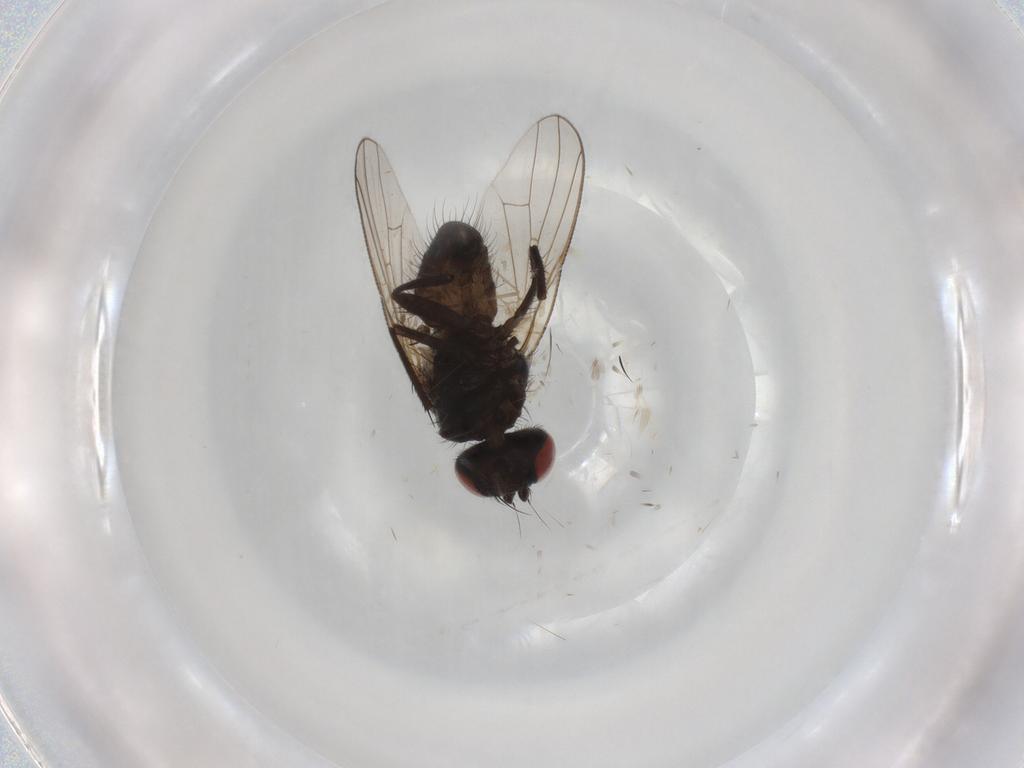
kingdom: Animalia
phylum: Arthropoda
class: Insecta
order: Diptera
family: Muscidae
